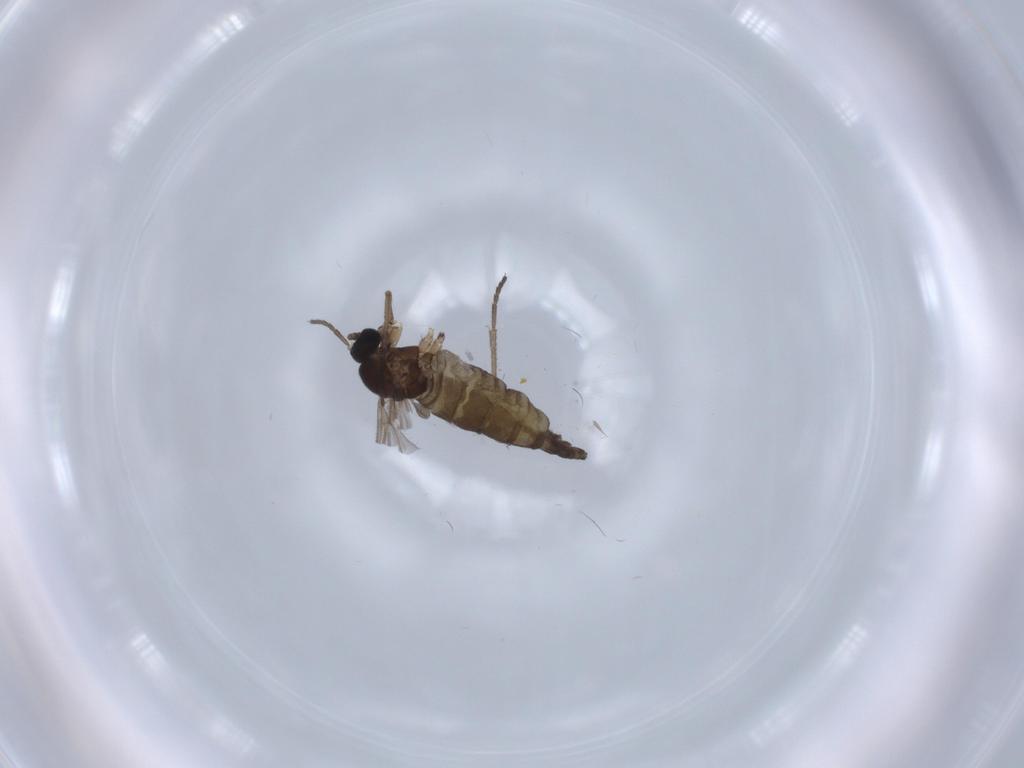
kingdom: Animalia
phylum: Arthropoda
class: Insecta
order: Diptera
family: Sciaridae
